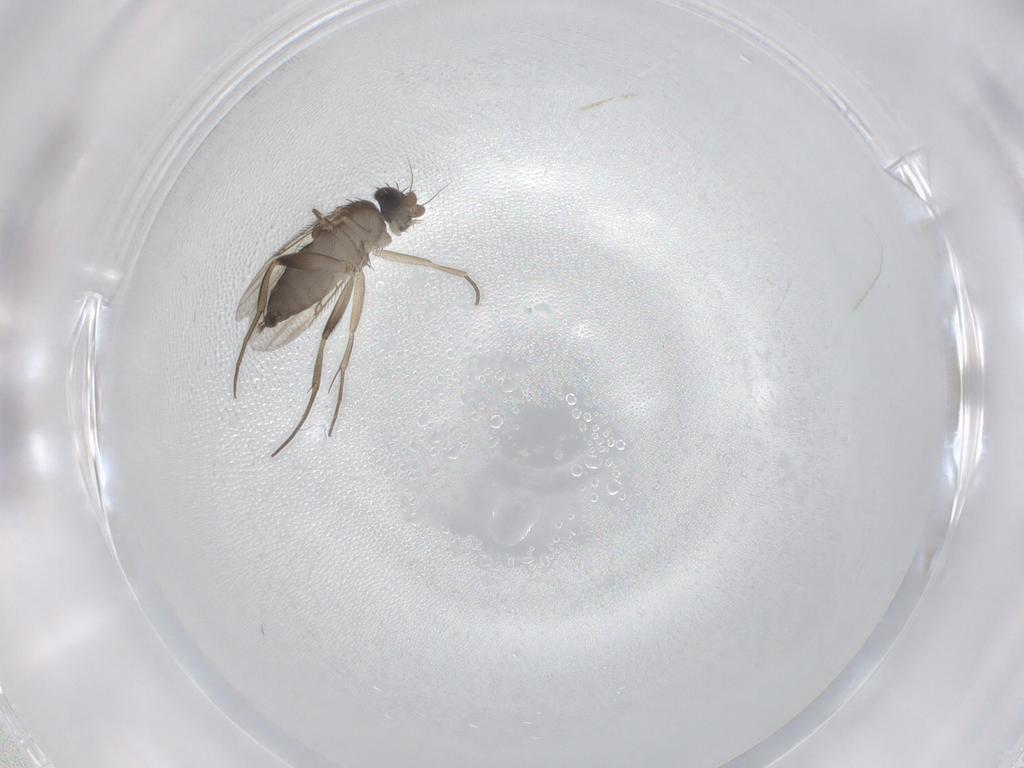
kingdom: Animalia
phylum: Arthropoda
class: Insecta
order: Diptera
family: Phoridae
